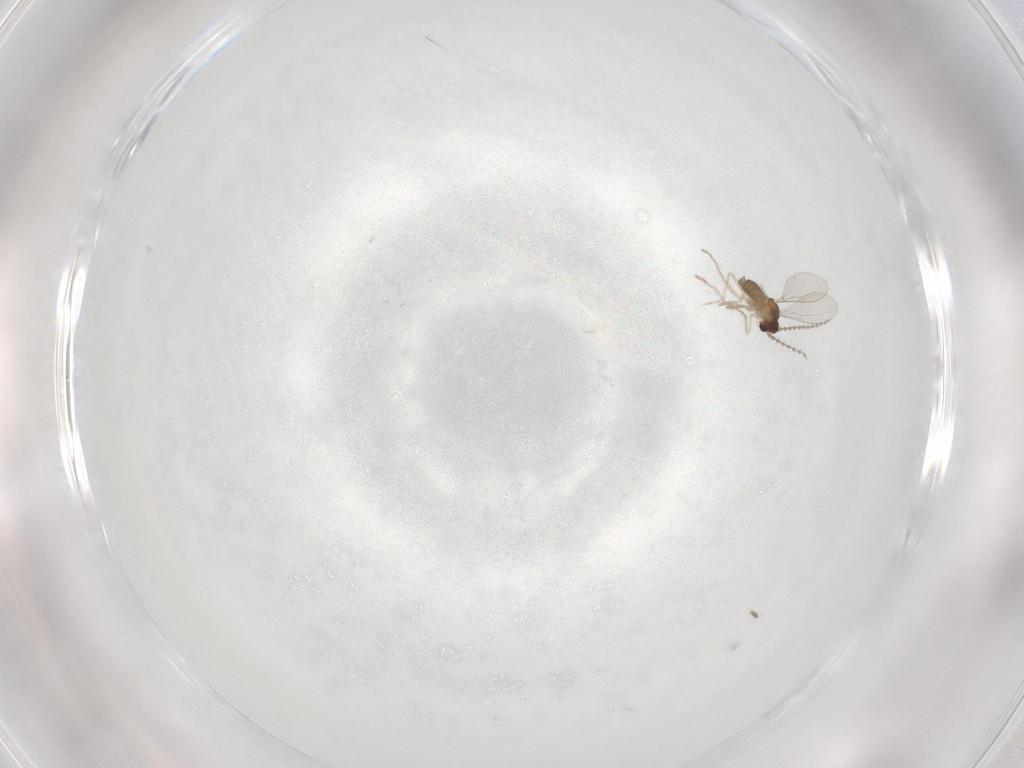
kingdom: Animalia
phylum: Arthropoda
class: Insecta
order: Diptera
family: Cecidomyiidae
